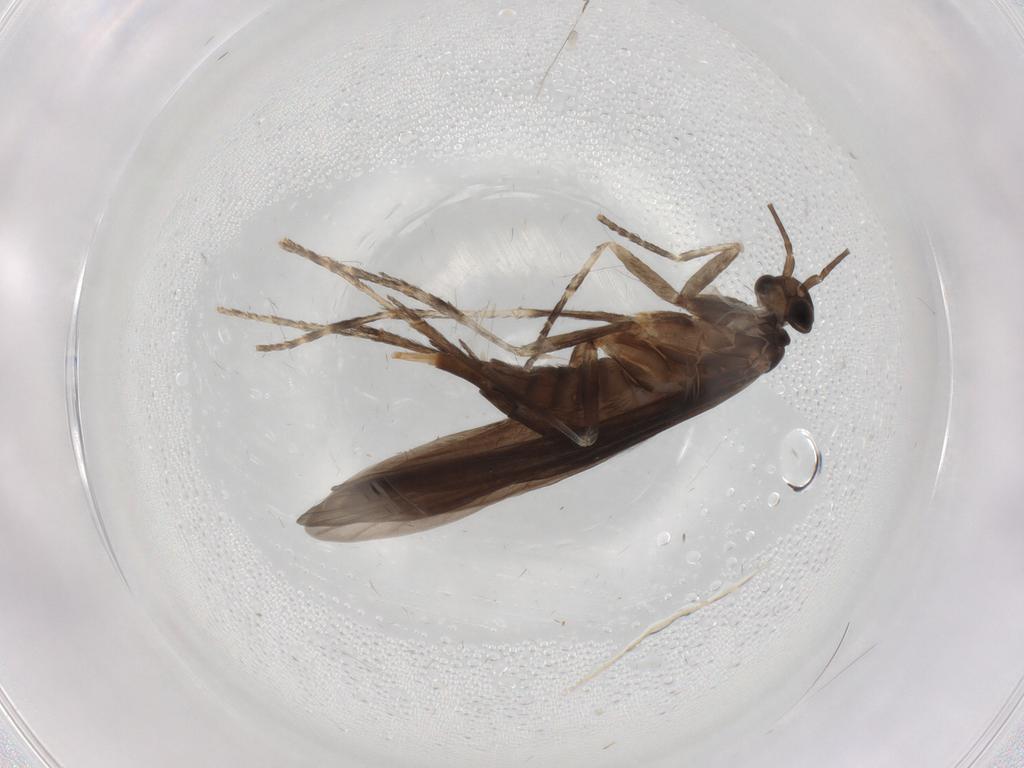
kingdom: Animalia
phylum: Arthropoda
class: Insecta
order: Trichoptera
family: Xiphocentronidae
